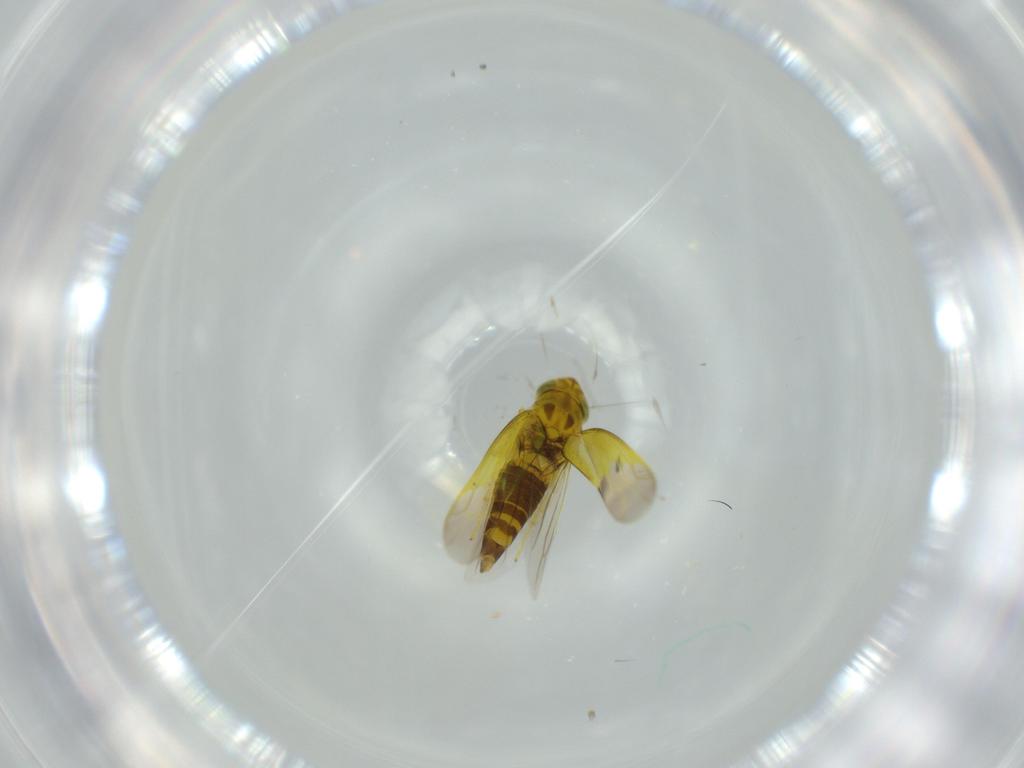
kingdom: Animalia
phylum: Arthropoda
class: Insecta
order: Hemiptera
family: Cicadellidae
